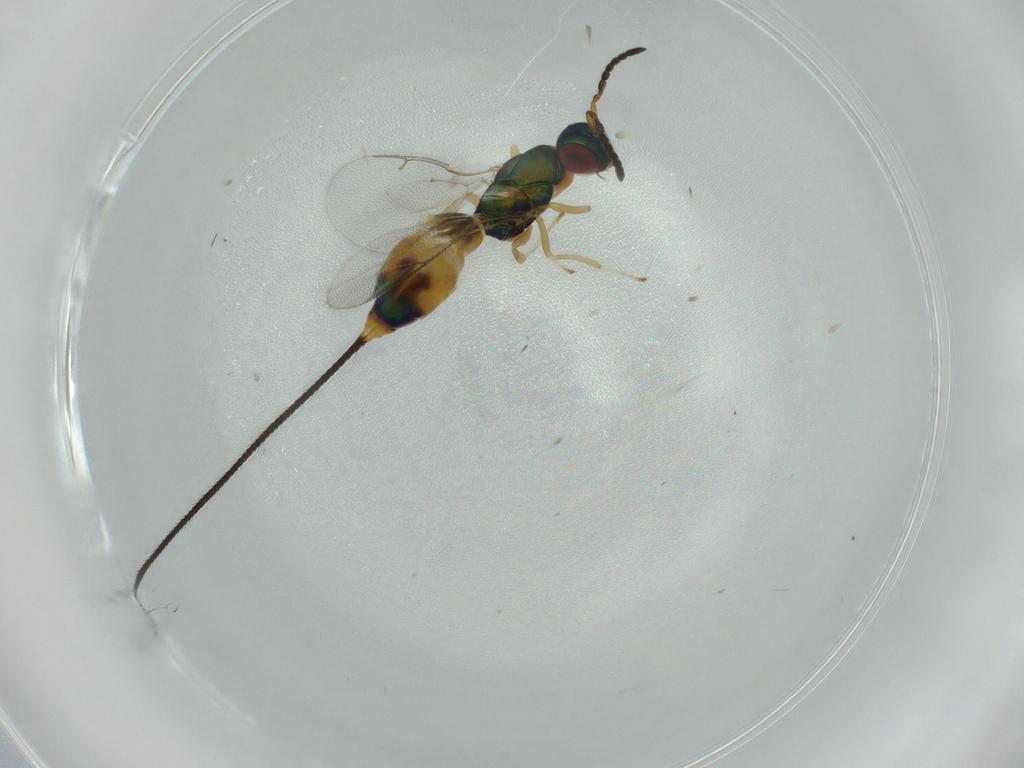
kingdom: Animalia
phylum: Arthropoda
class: Insecta
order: Hymenoptera
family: Torymidae
